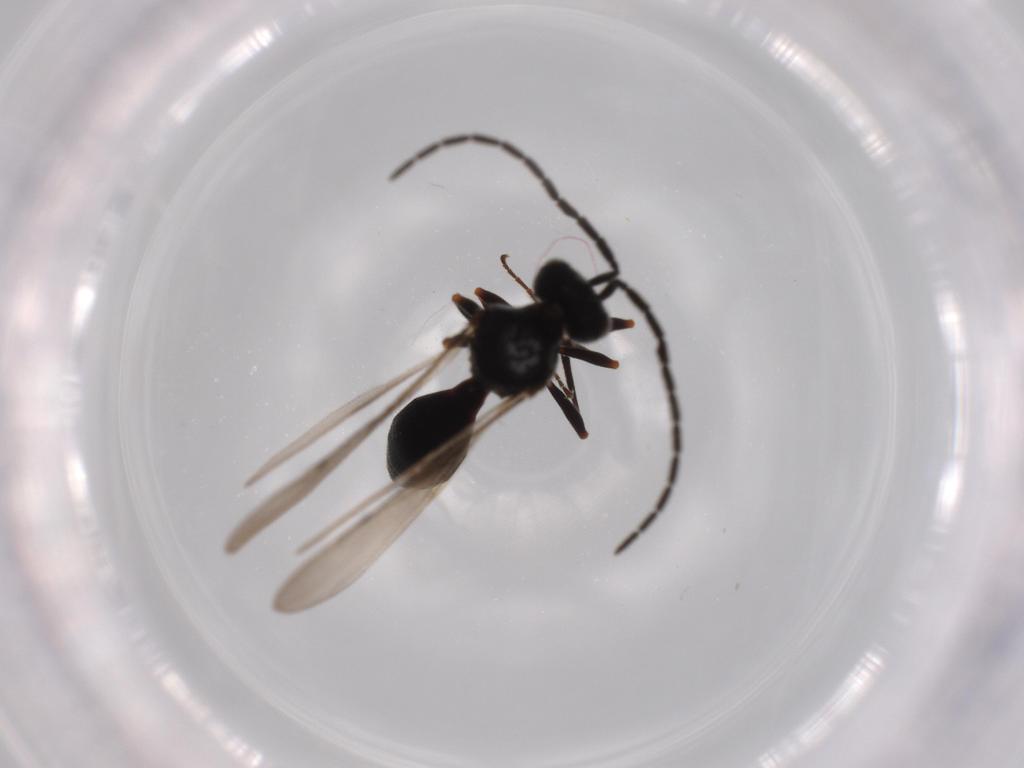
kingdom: Animalia
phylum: Arthropoda
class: Insecta
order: Hymenoptera
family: Scelionidae
